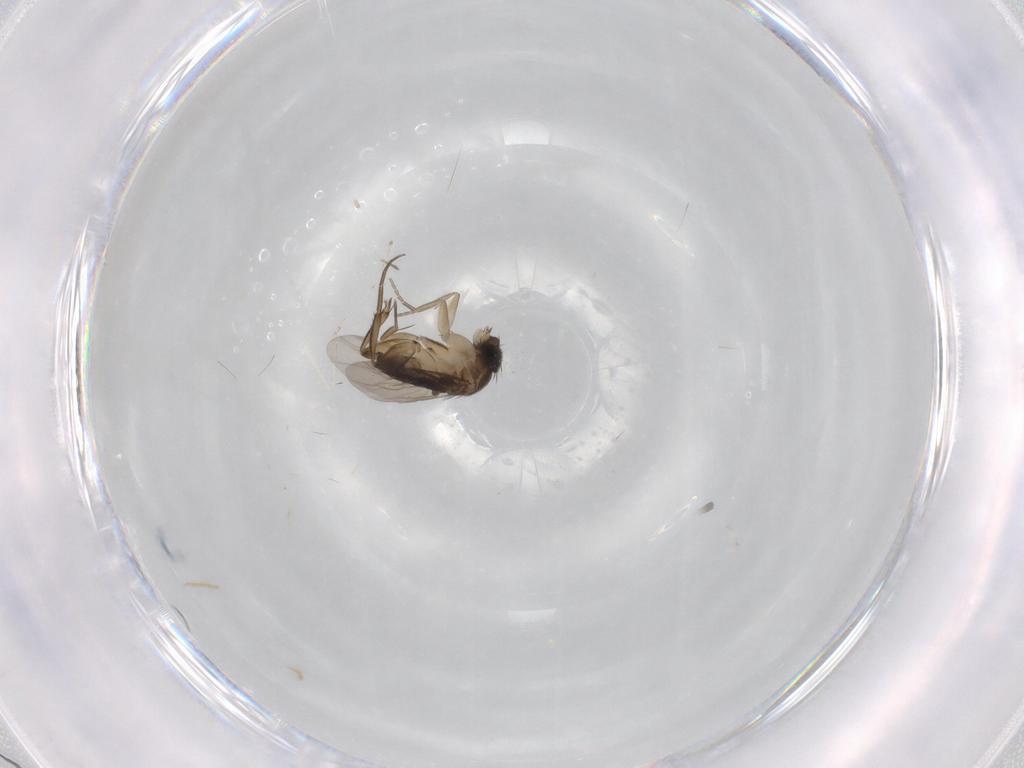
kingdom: Animalia
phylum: Arthropoda
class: Insecta
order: Diptera
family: Phoridae
